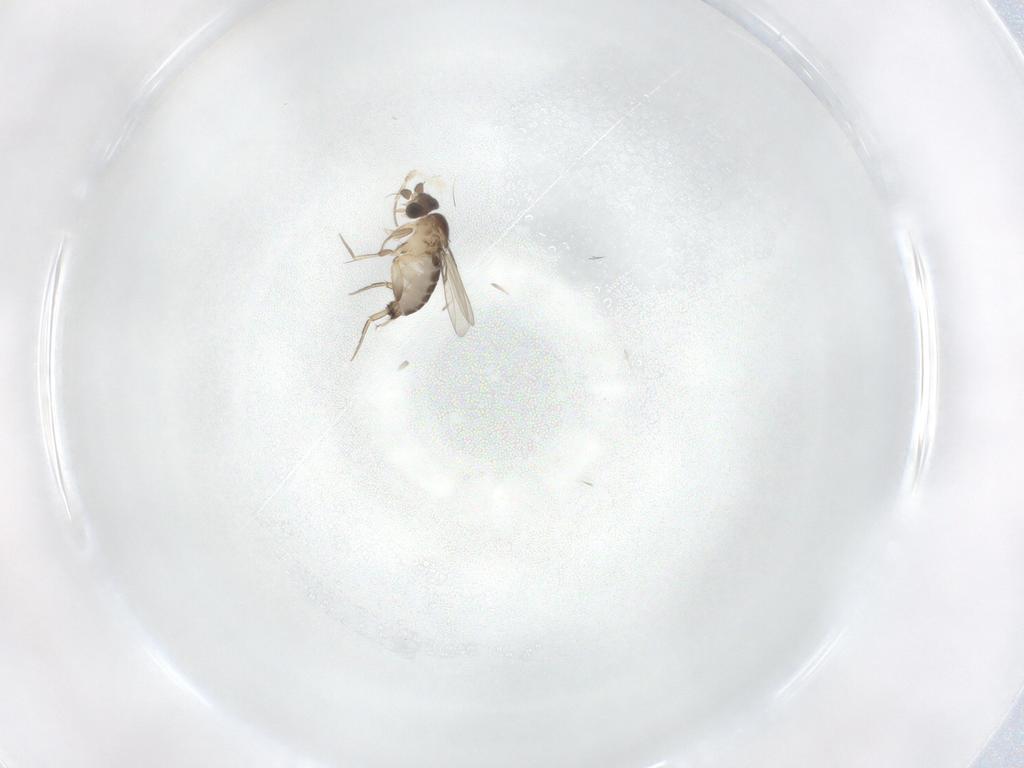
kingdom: Animalia
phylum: Arthropoda
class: Insecta
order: Diptera
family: Phoridae
